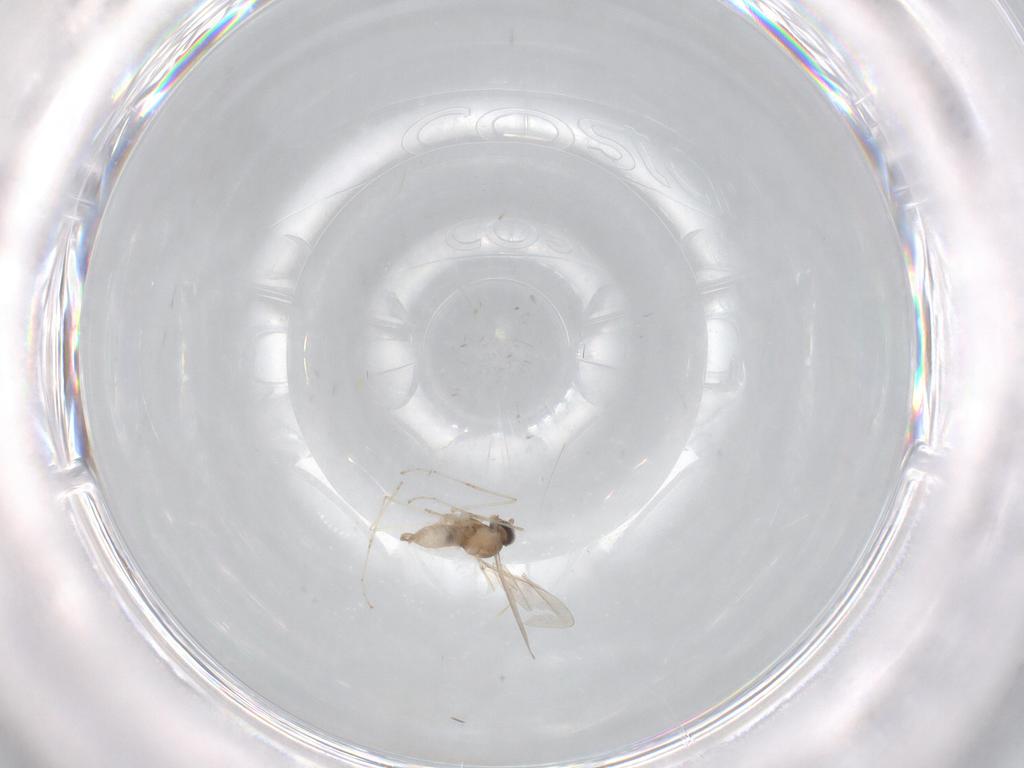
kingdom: Animalia
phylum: Arthropoda
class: Insecta
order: Diptera
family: Cecidomyiidae
